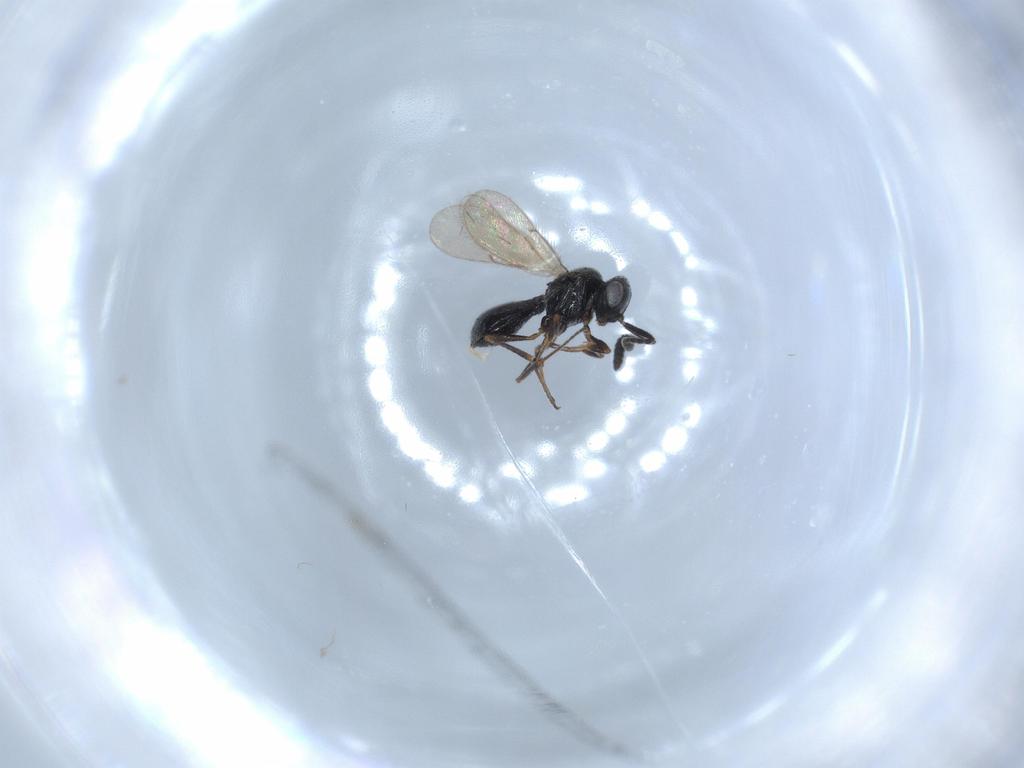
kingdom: Animalia
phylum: Arthropoda
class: Insecta
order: Hymenoptera
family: Scelionidae
